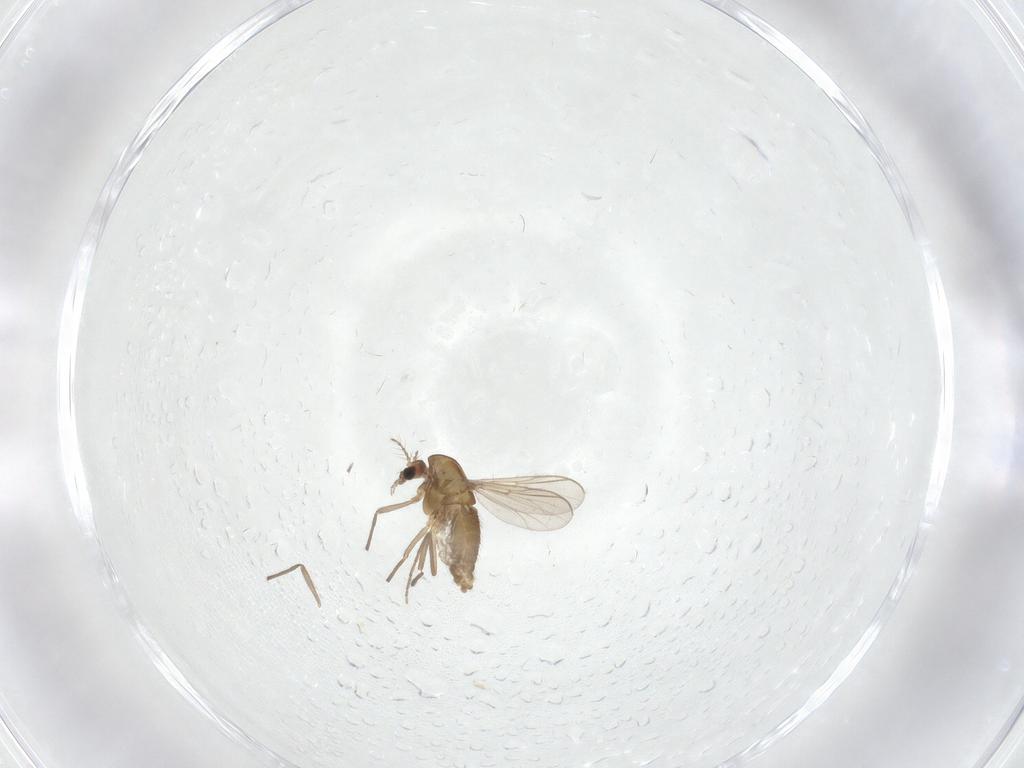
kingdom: Animalia
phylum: Arthropoda
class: Insecta
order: Diptera
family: Chironomidae
